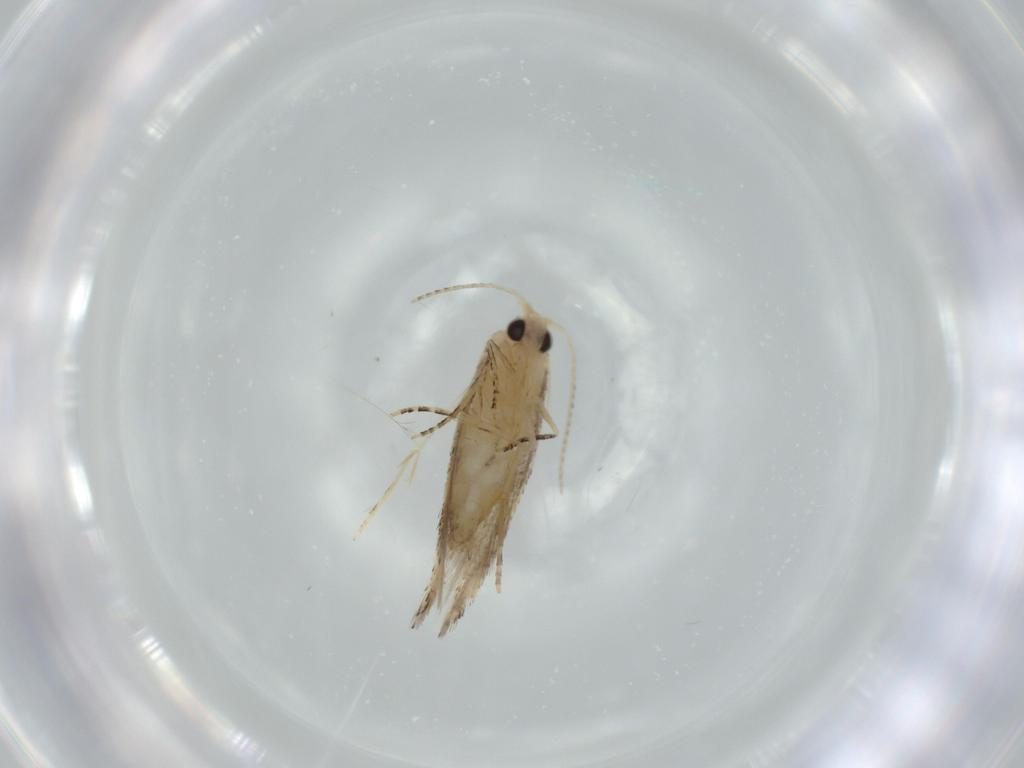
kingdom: Animalia
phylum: Arthropoda
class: Insecta
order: Lepidoptera
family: Bucculatricidae
